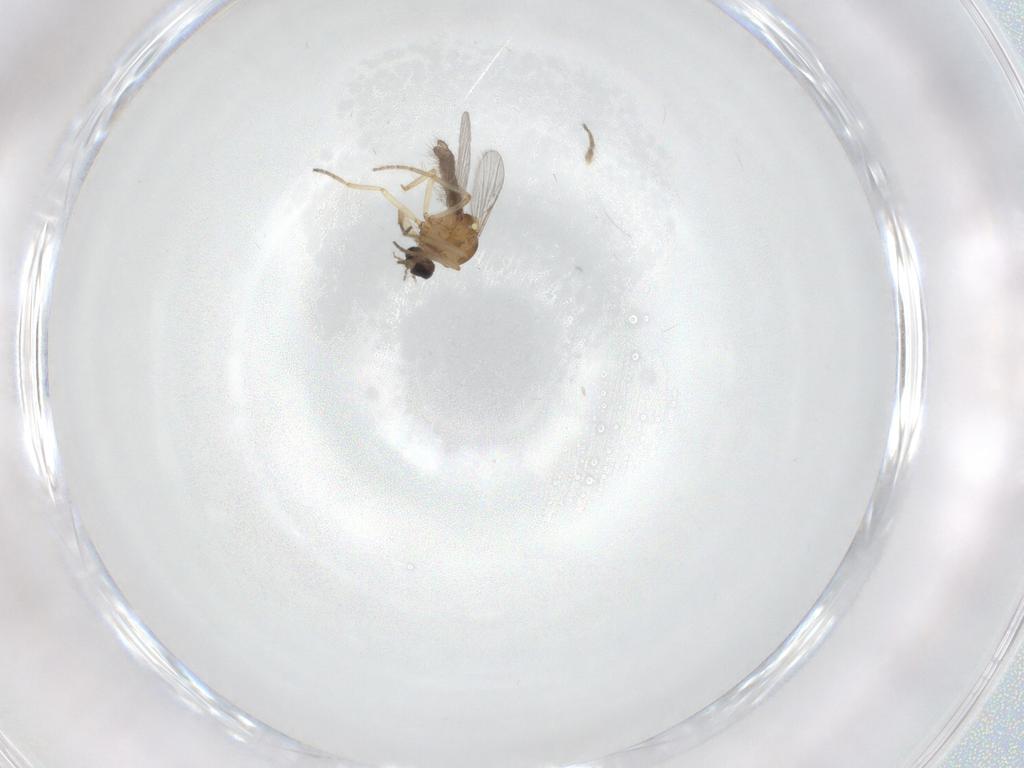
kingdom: Animalia
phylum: Arthropoda
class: Insecta
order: Diptera
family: Ceratopogonidae
